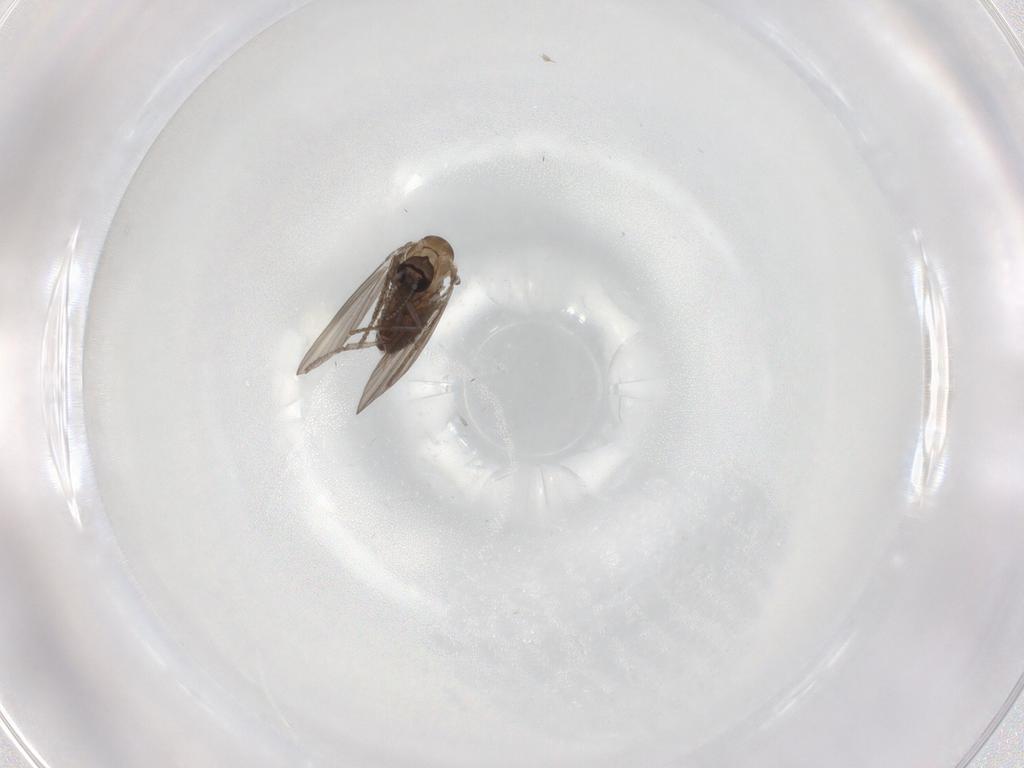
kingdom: Animalia
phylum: Arthropoda
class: Insecta
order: Diptera
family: Psychodidae
